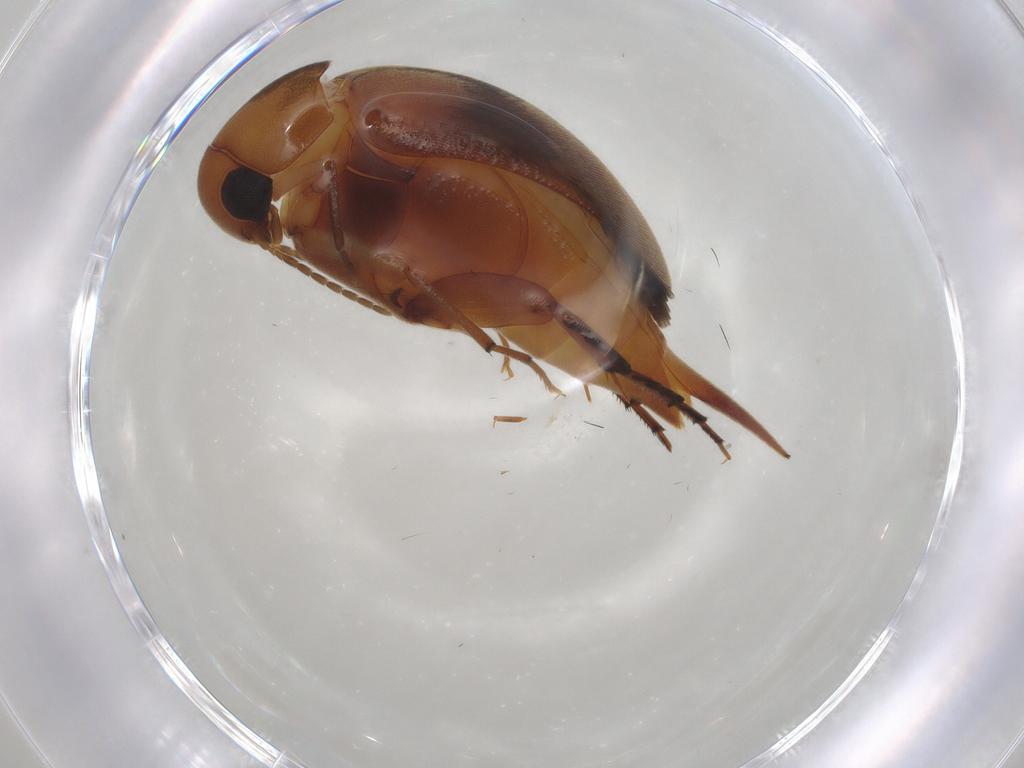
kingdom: Animalia
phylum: Arthropoda
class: Insecta
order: Coleoptera
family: Mordellidae
